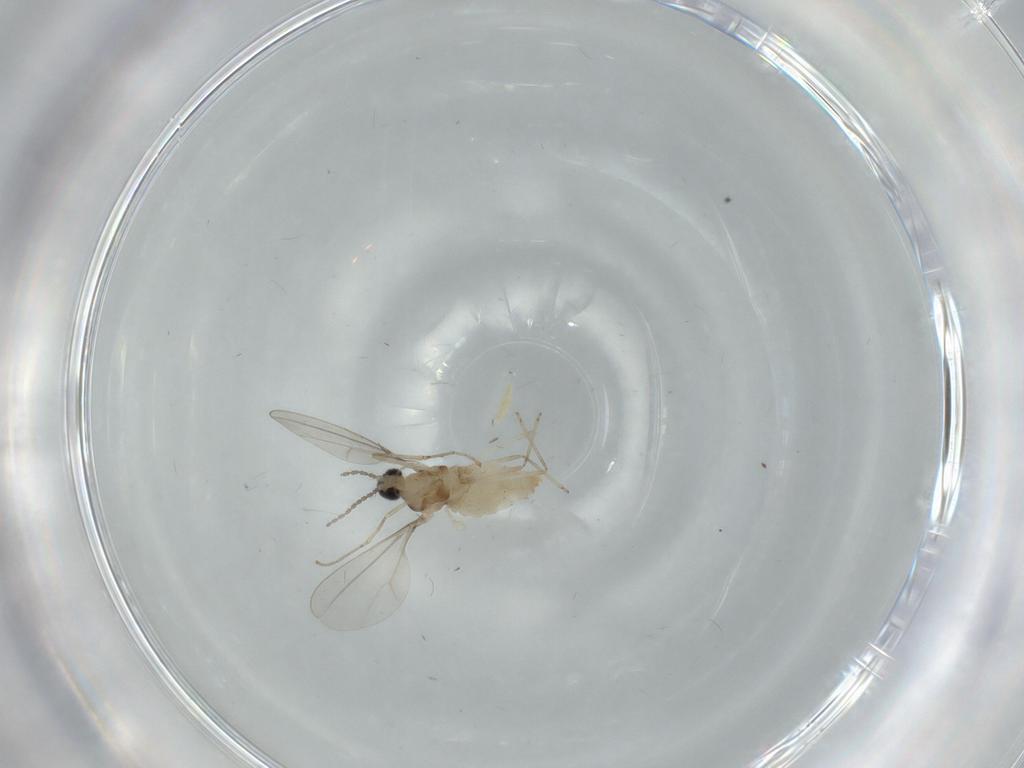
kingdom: Animalia
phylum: Arthropoda
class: Insecta
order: Diptera
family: Cecidomyiidae
